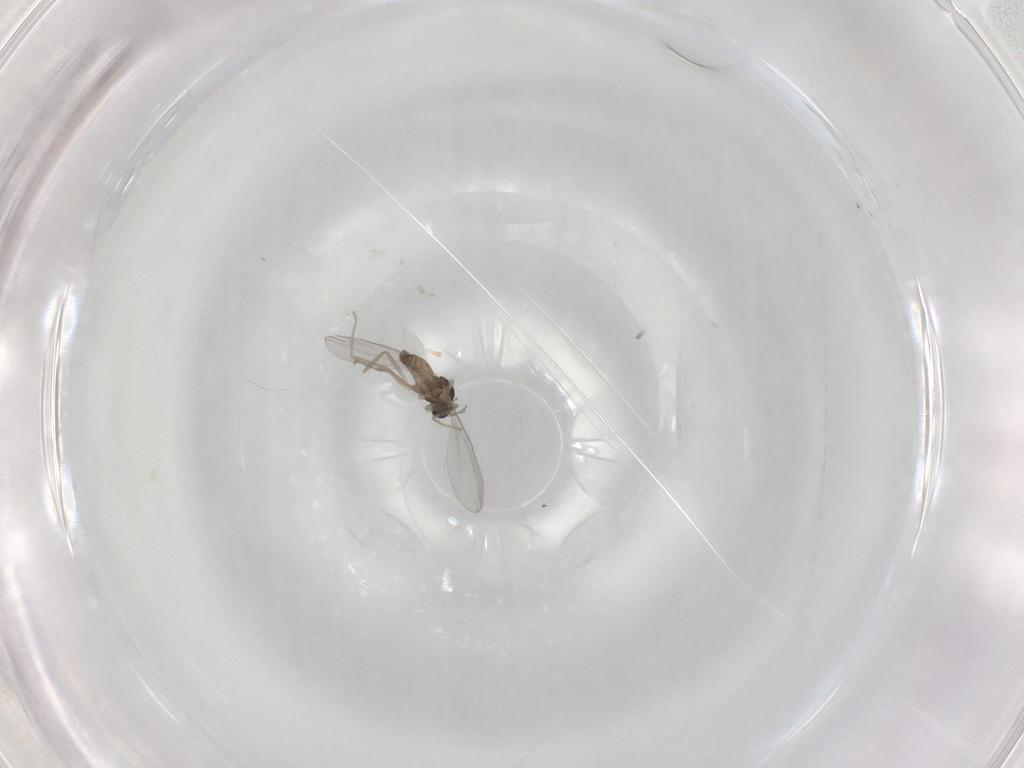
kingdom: Animalia
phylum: Arthropoda
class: Insecta
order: Diptera
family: Cecidomyiidae
